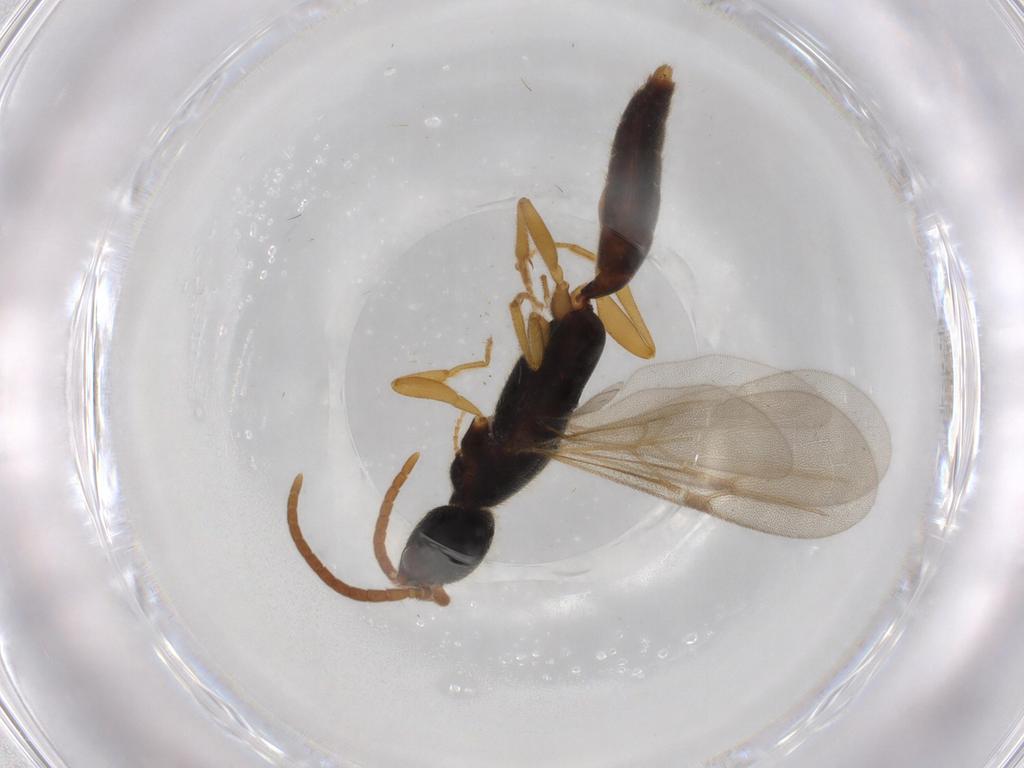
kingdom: Animalia
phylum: Arthropoda
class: Insecta
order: Hymenoptera
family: Bethylidae
